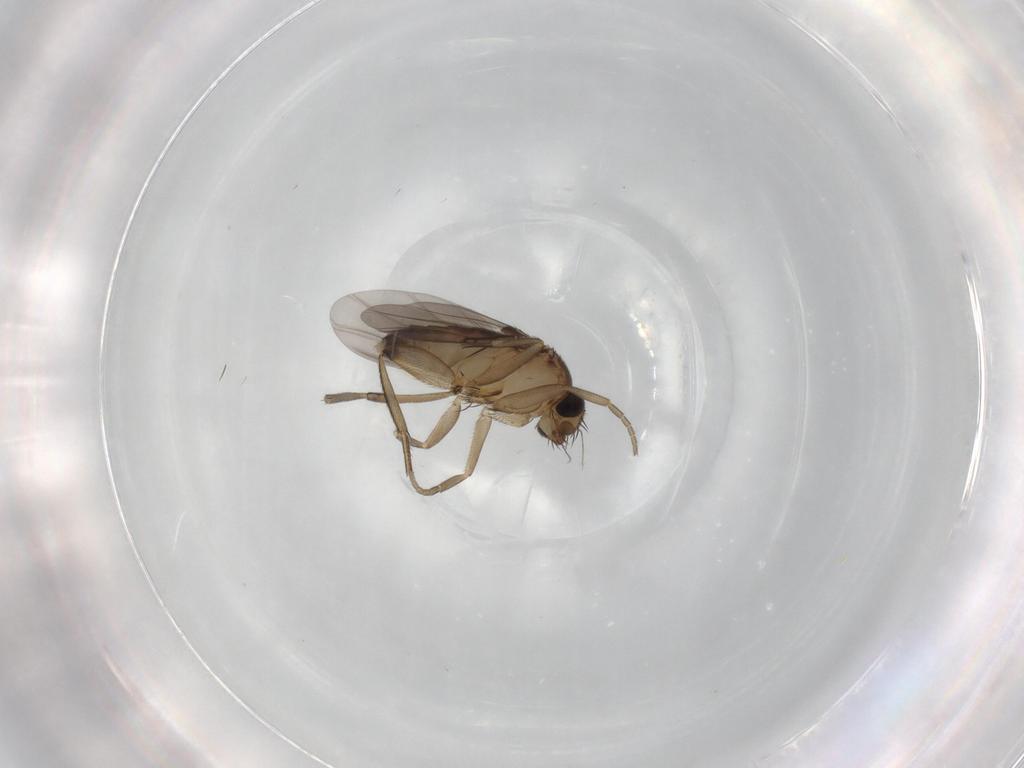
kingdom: Animalia
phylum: Arthropoda
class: Insecta
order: Diptera
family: Phoridae
